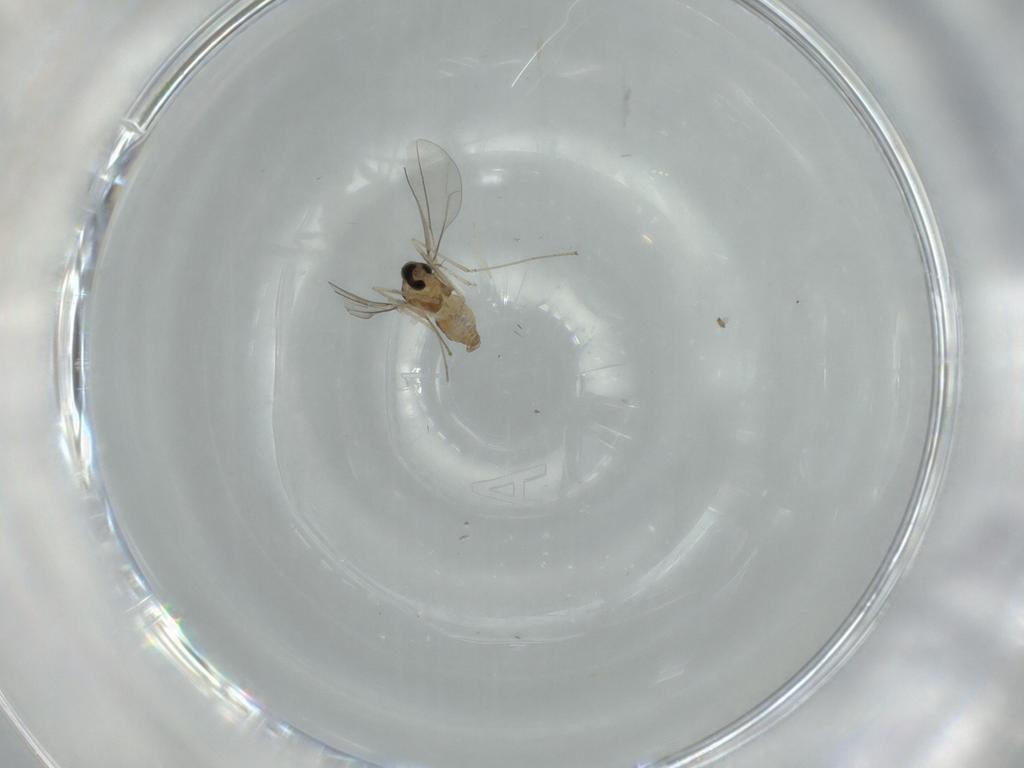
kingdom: Animalia
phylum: Arthropoda
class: Insecta
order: Diptera
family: Cecidomyiidae
